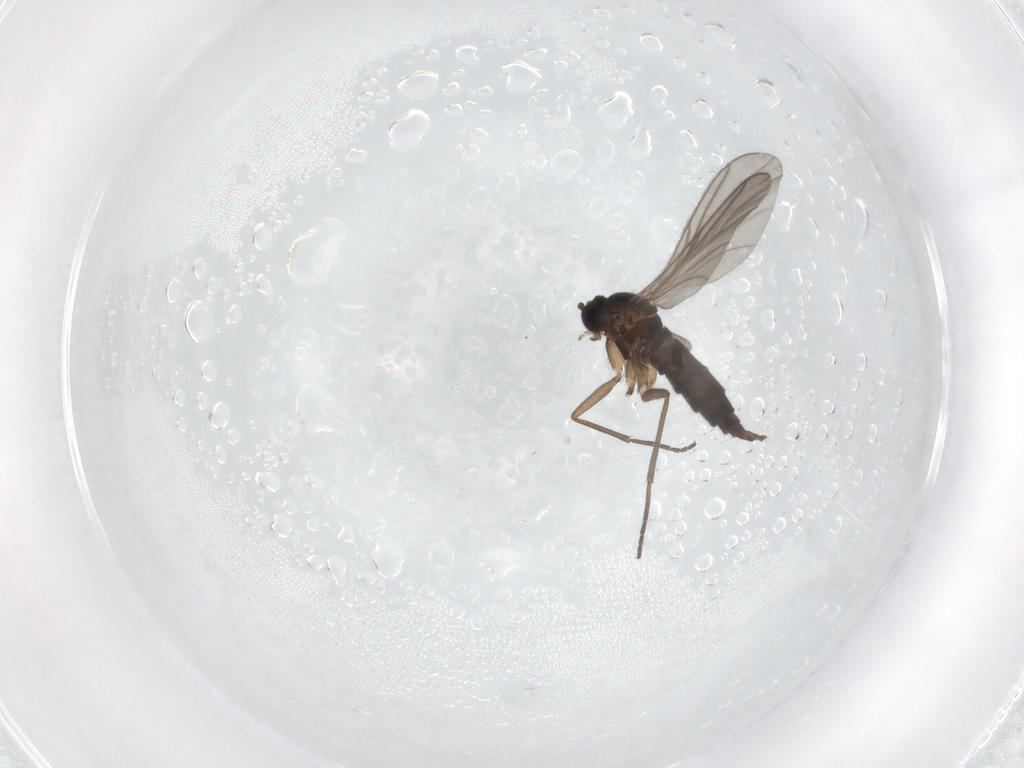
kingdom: Animalia
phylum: Arthropoda
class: Insecta
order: Diptera
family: Sciaridae
